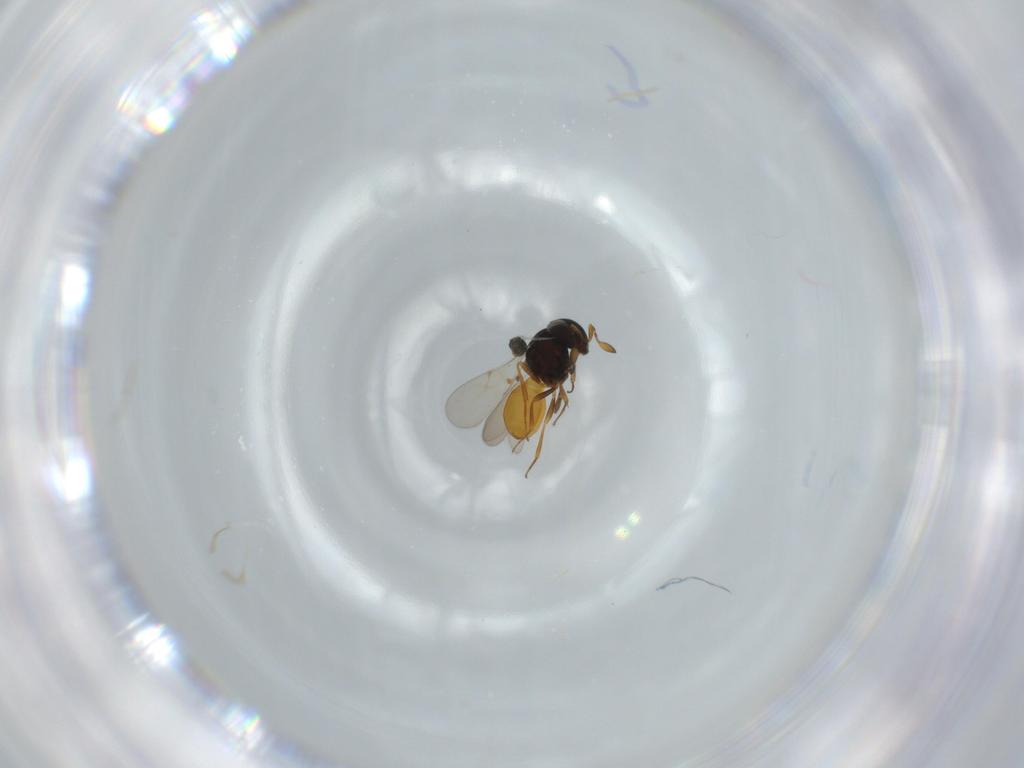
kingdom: Animalia
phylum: Arthropoda
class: Insecta
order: Hymenoptera
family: Scelionidae
